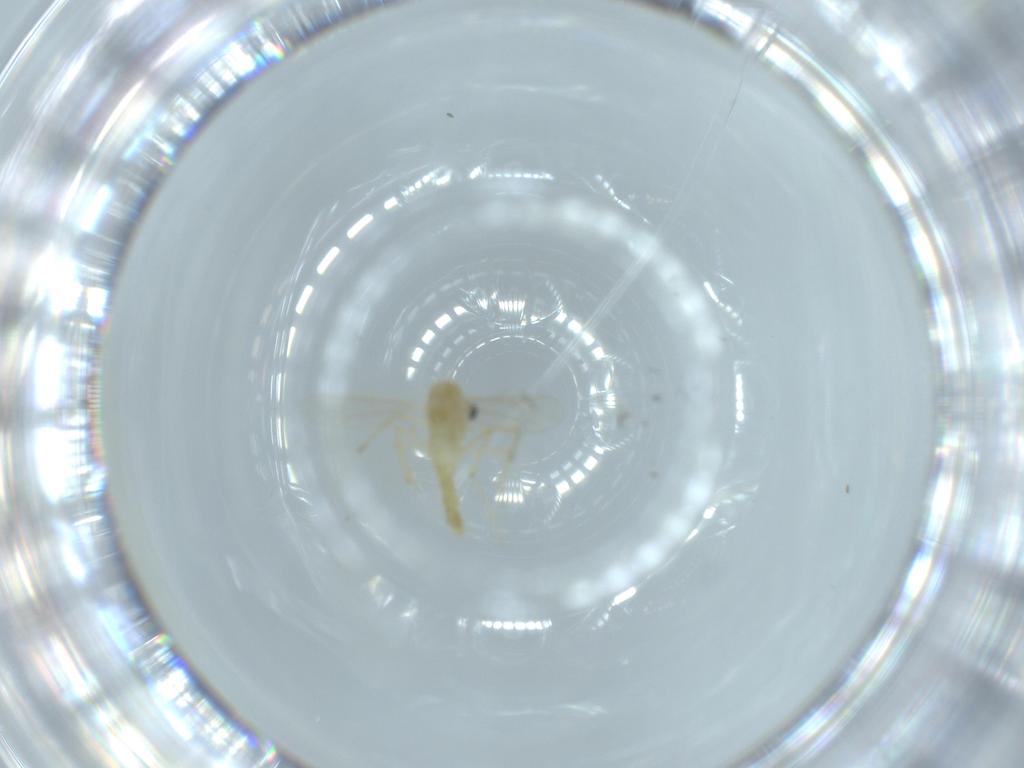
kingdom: Animalia
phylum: Arthropoda
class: Insecta
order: Diptera
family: Chironomidae
